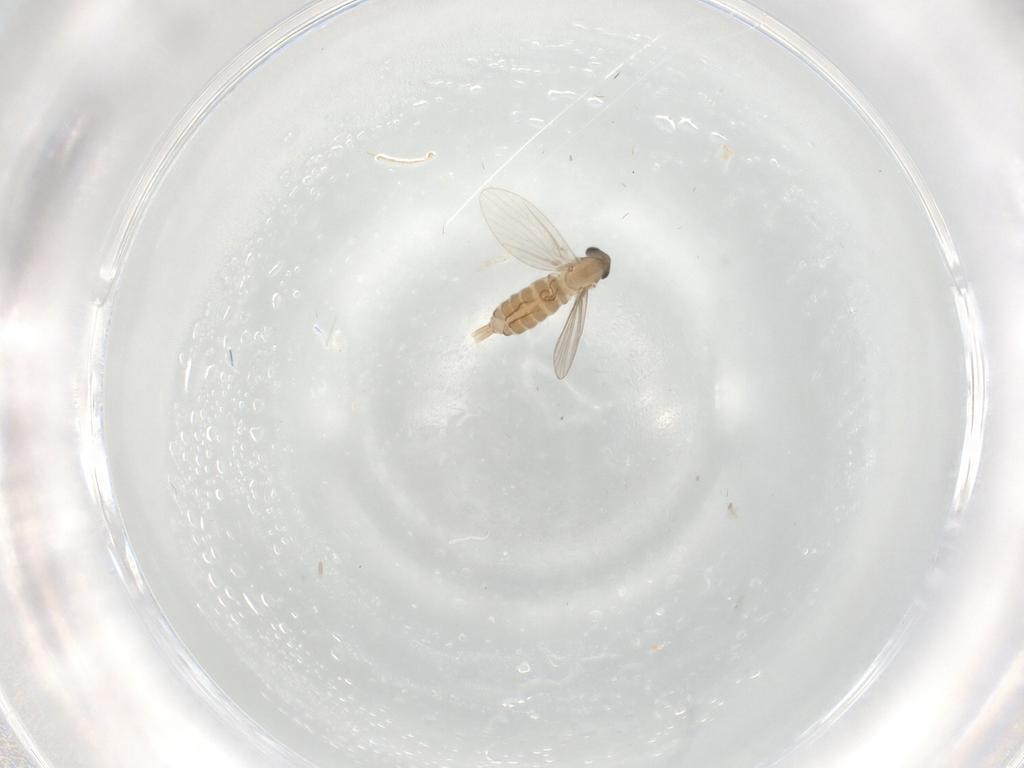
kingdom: Animalia
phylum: Arthropoda
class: Insecta
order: Diptera
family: Psychodidae
